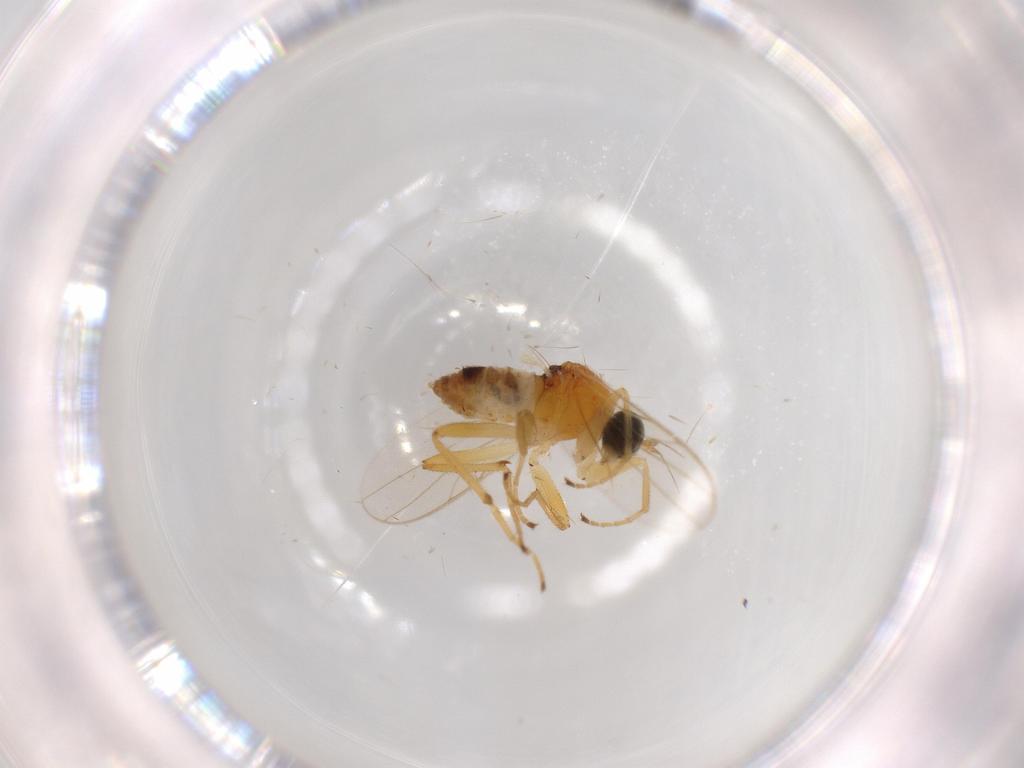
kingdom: Animalia
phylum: Arthropoda
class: Insecta
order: Diptera
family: Hybotidae
